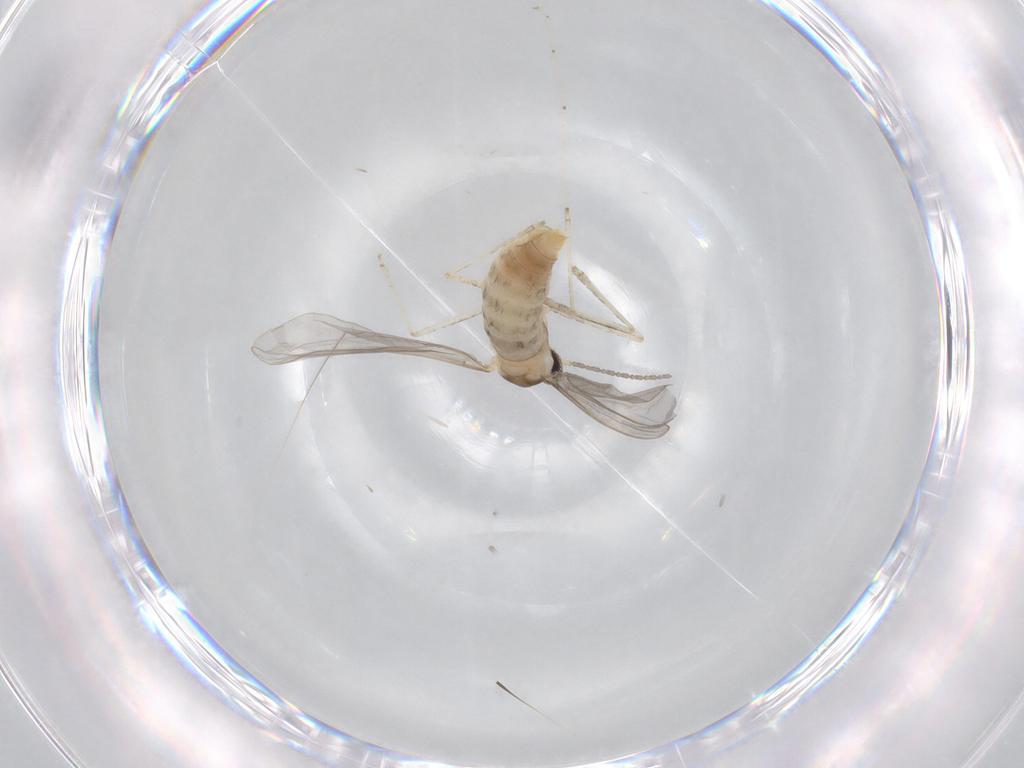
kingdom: Animalia
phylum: Arthropoda
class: Insecta
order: Diptera
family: Cecidomyiidae
